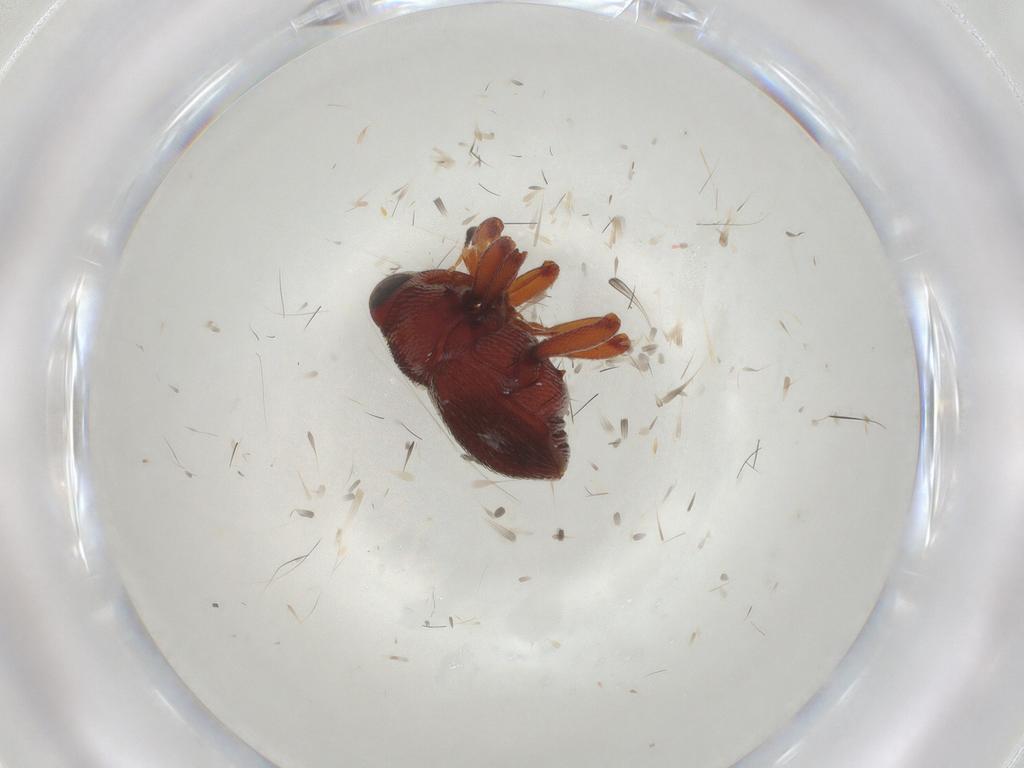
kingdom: Animalia
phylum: Arthropoda
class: Insecta
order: Coleoptera
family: Curculionidae
